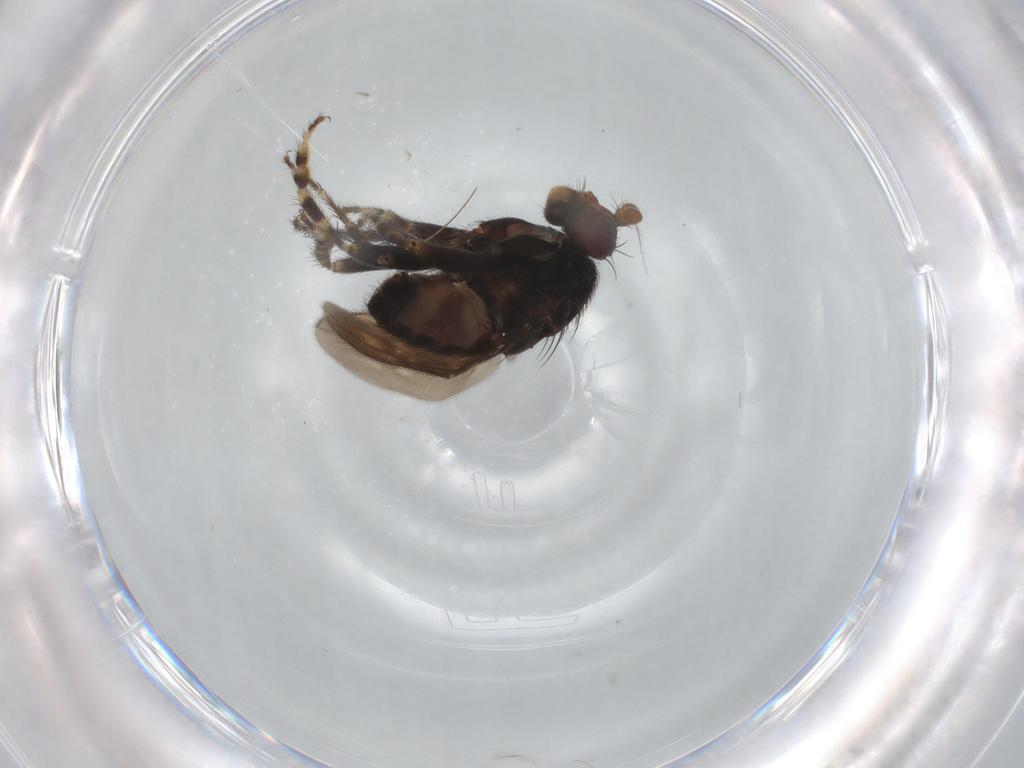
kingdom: Animalia
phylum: Arthropoda
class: Insecta
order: Diptera
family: Sphaeroceridae
